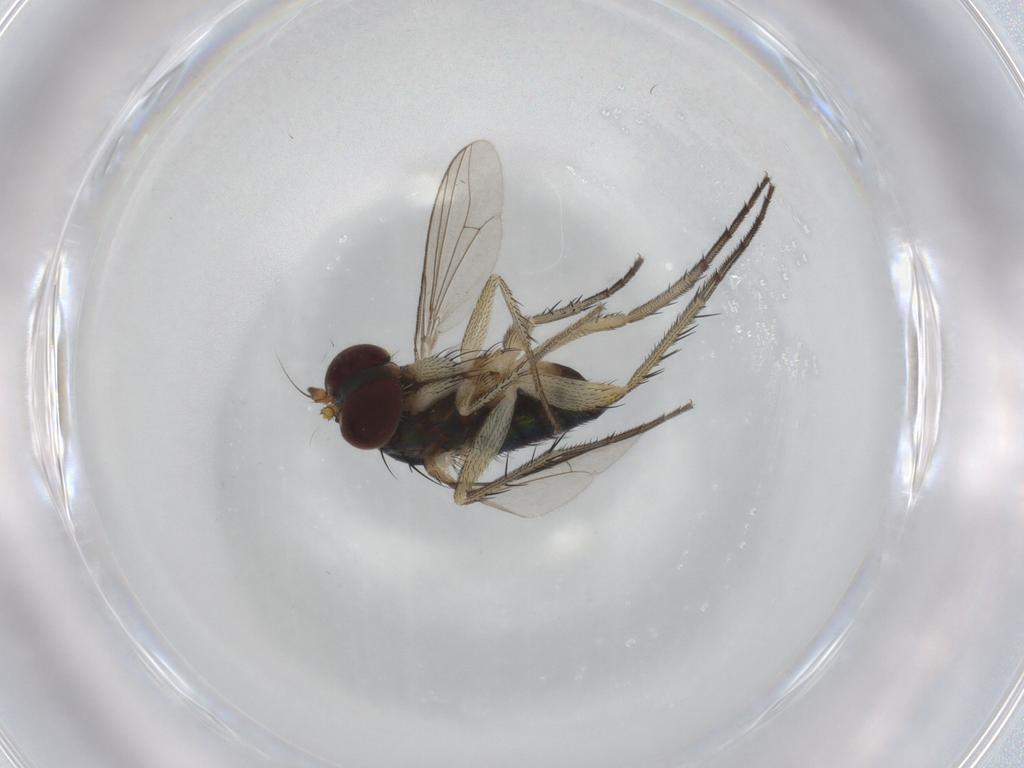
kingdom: Animalia
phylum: Arthropoda
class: Insecta
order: Diptera
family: Dolichopodidae
